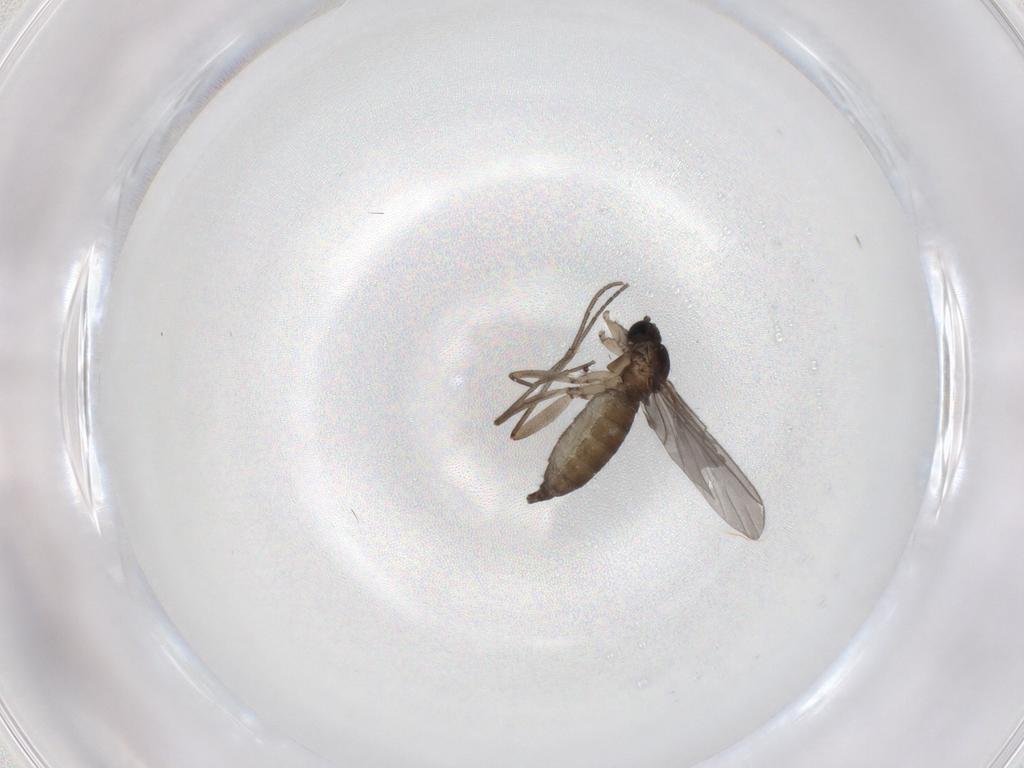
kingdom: Animalia
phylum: Arthropoda
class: Insecta
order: Diptera
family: Sciaridae
